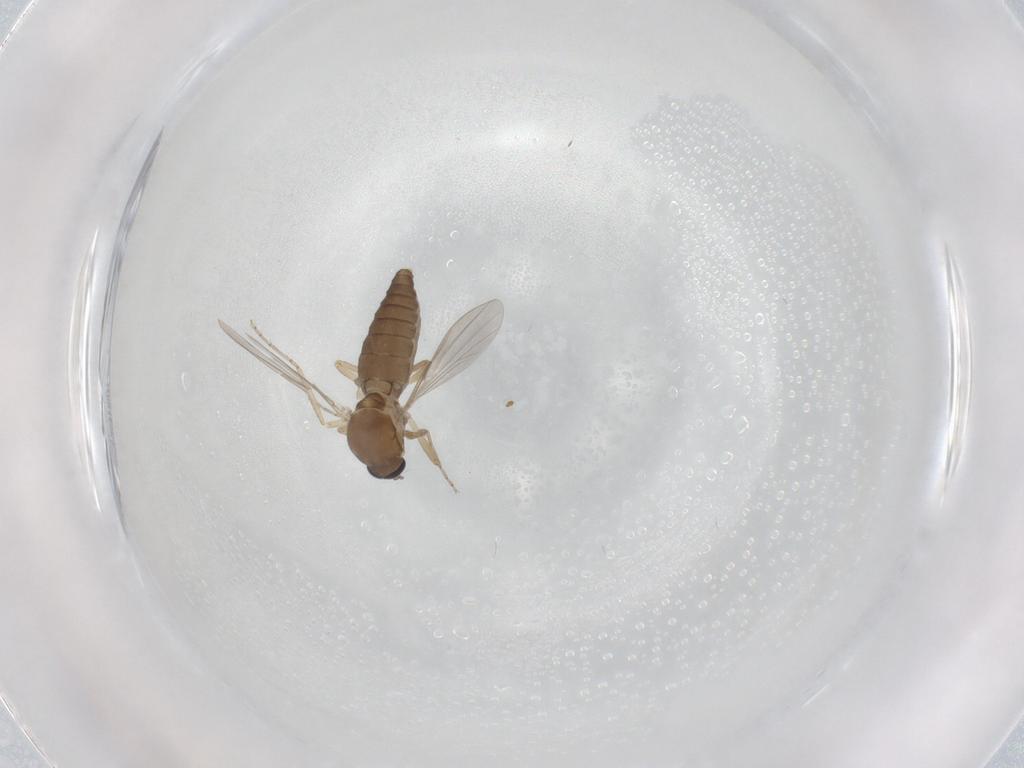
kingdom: Animalia
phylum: Arthropoda
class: Insecta
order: Diptera
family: Ceratopogonidae
